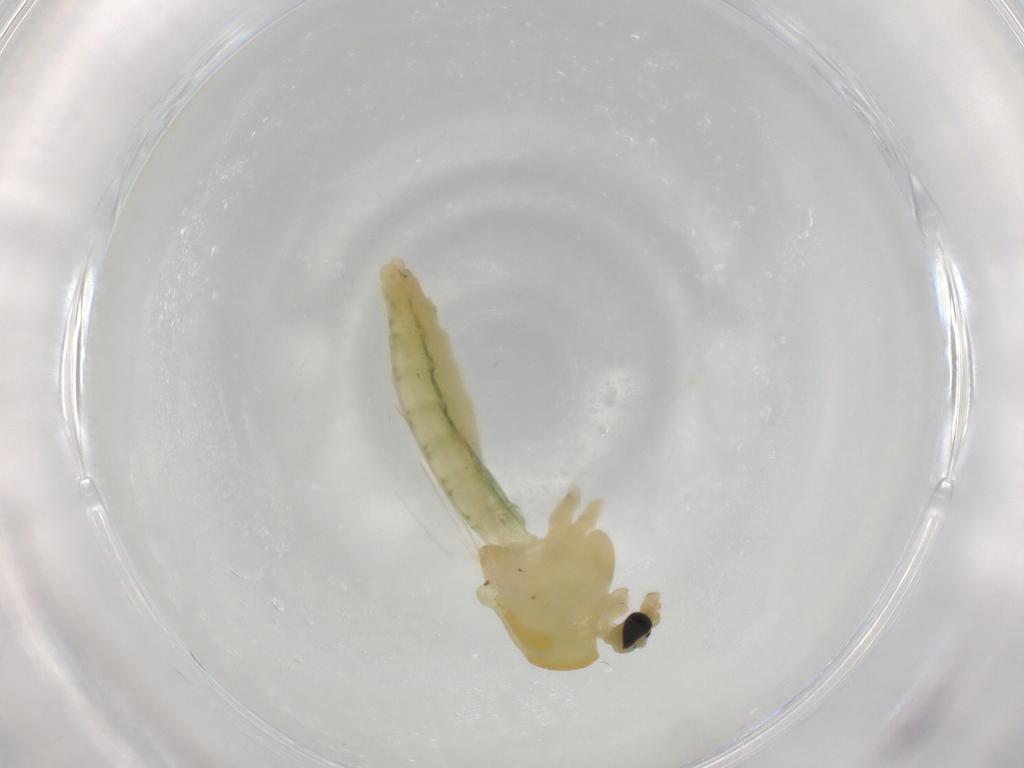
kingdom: Animalia
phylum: Arthropoda
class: Insecta
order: Diptera
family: Chironomidae
